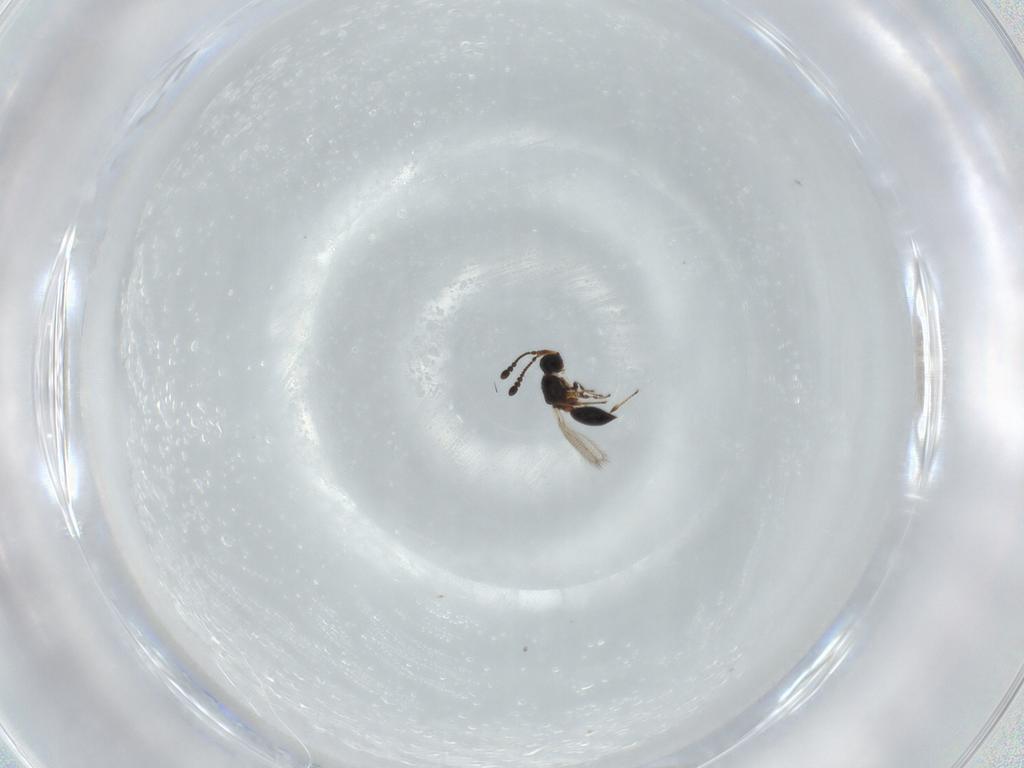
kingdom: Animalia
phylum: Arthropoda
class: Insecta
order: Hymenoptera
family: Diapriidae
